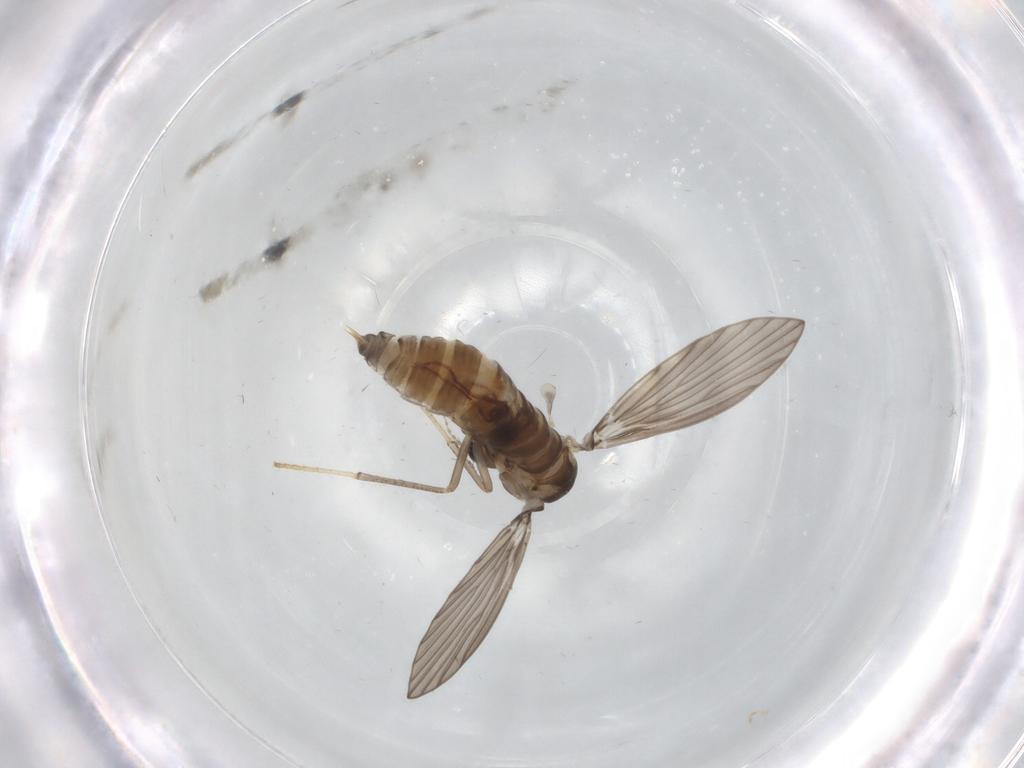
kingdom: Animalia
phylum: Arthropoda
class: Insecta
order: Diptera
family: Psychodidae
